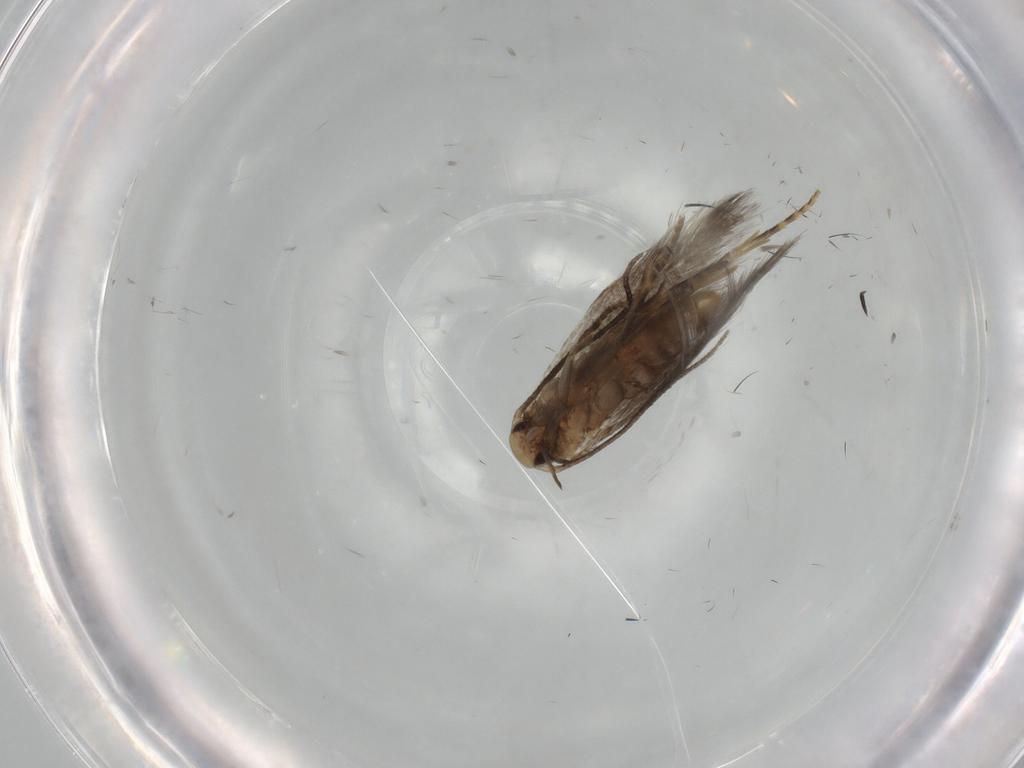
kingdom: Animalia
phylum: Arthropoda
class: Insecta
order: Lepidoptera
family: Elachistidae
